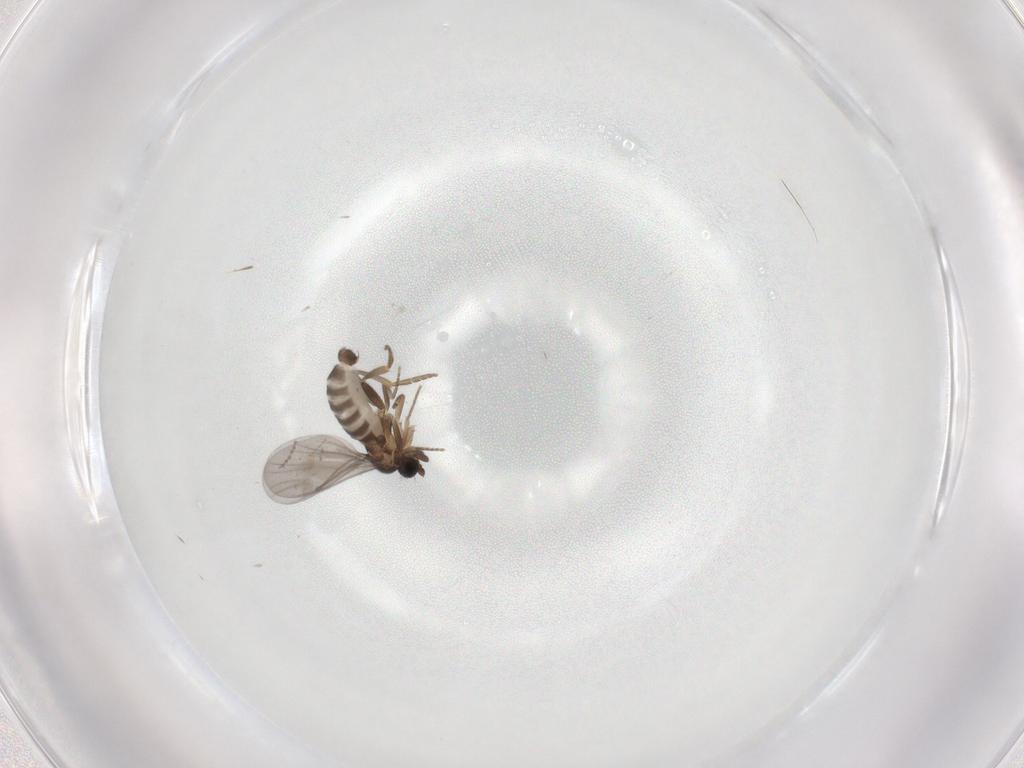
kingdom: Animalia
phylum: Arthropoda
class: Insecta
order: Diptera
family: Phoridae
